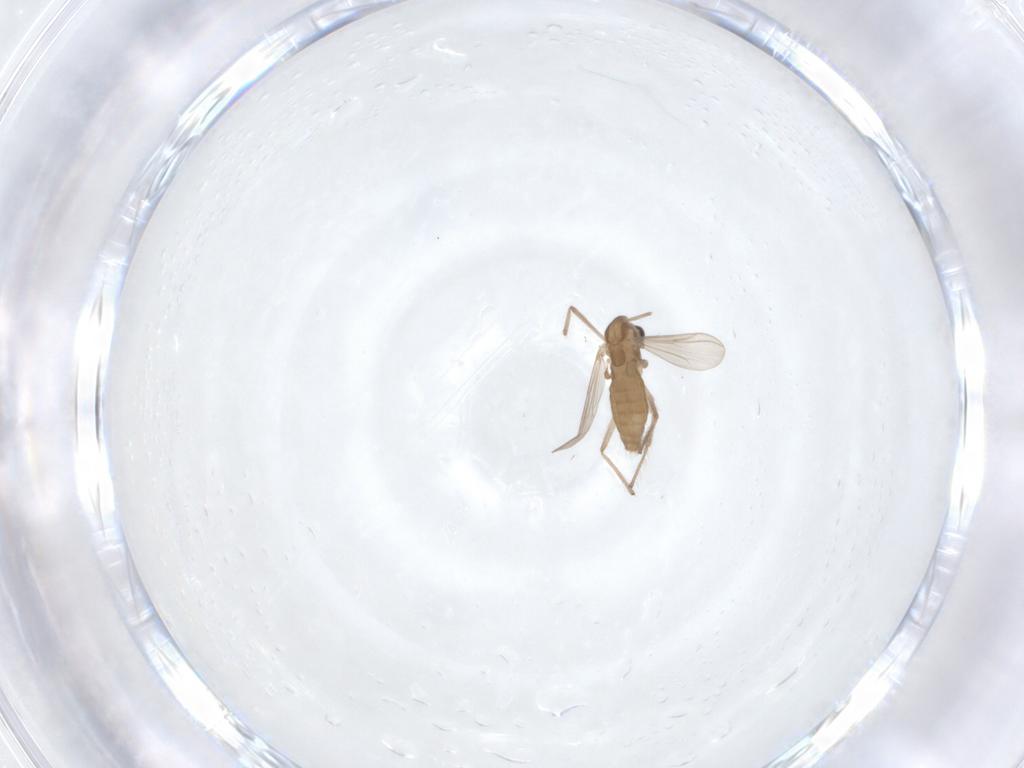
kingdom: Animalia
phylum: Arthropoda
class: Insecta
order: Diptera
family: Chironomidae
